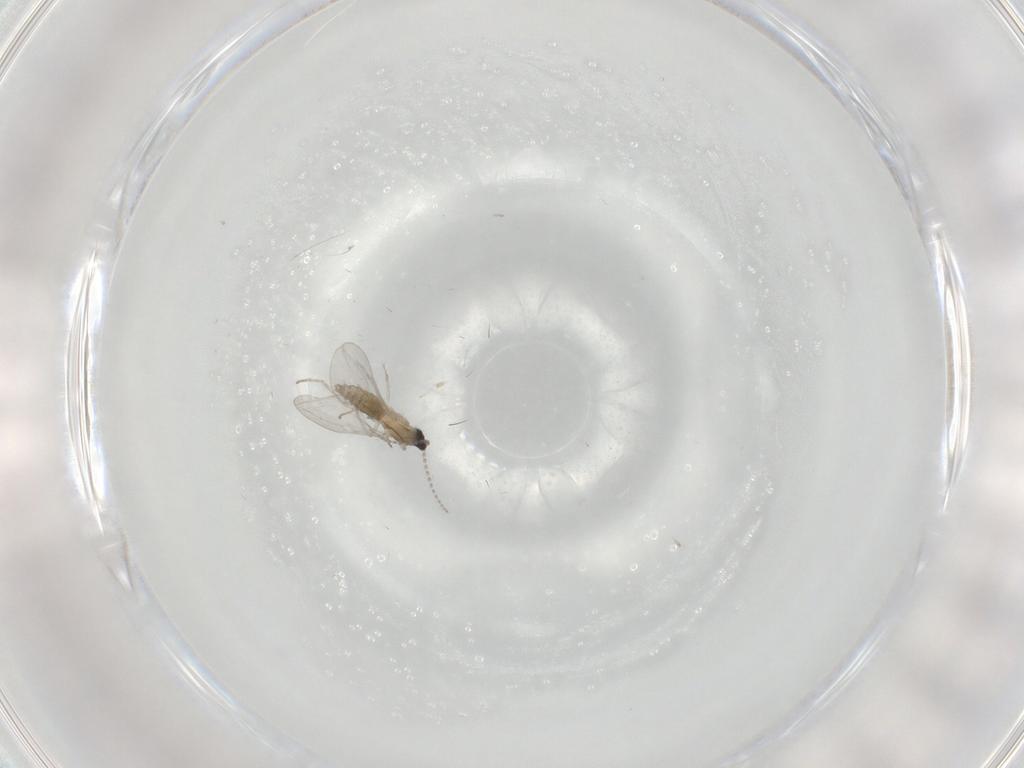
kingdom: Animalia
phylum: Arthropoda
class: Insecta
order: Diptera
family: Cecidomyiidae
